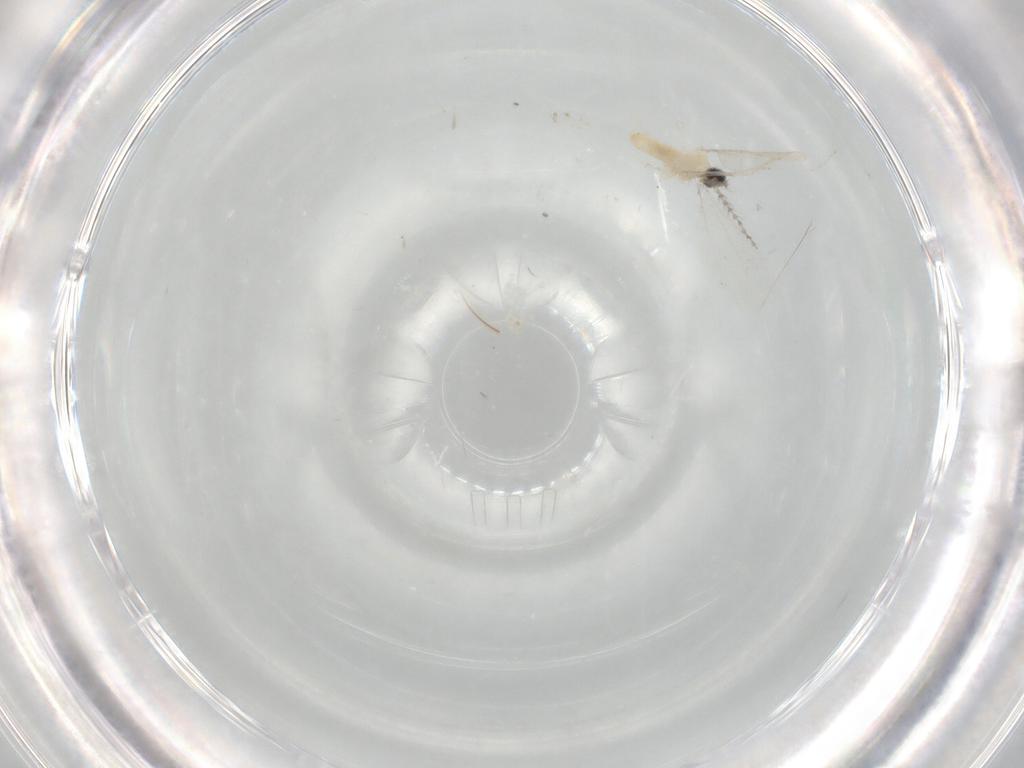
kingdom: Animalia
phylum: Arthropoda
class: Insecta
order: Diptera
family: Cecidomyiidae
